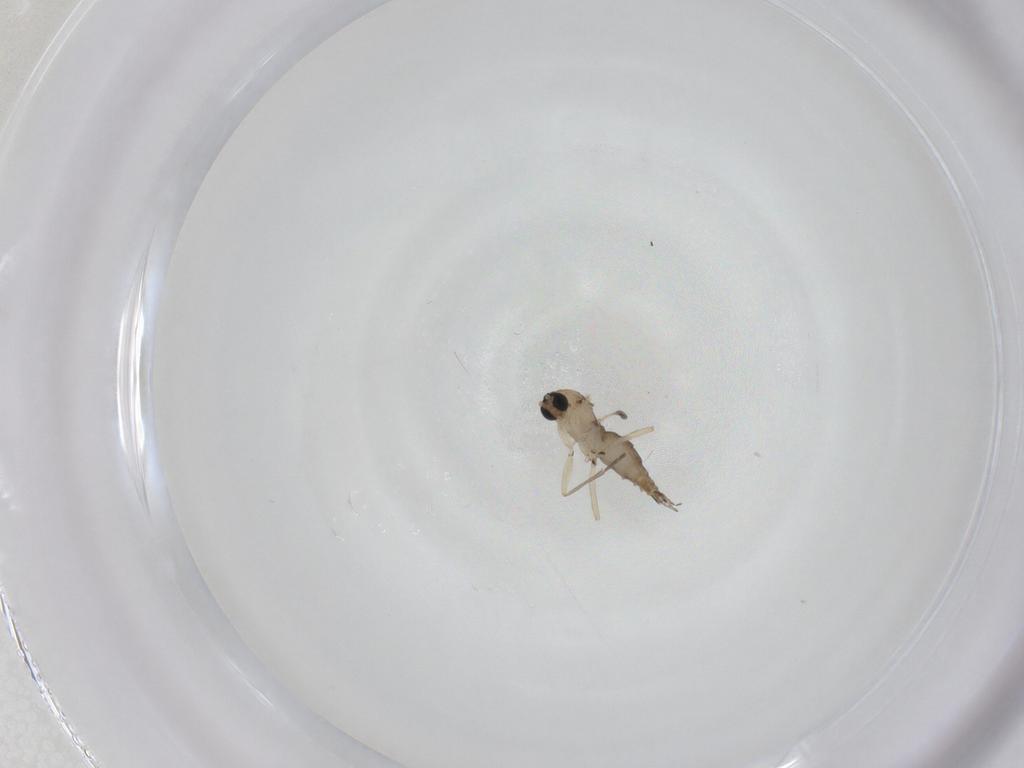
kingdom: Animalia
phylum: Arthropoda
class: Insecta
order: Diptera
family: Sciaridae
